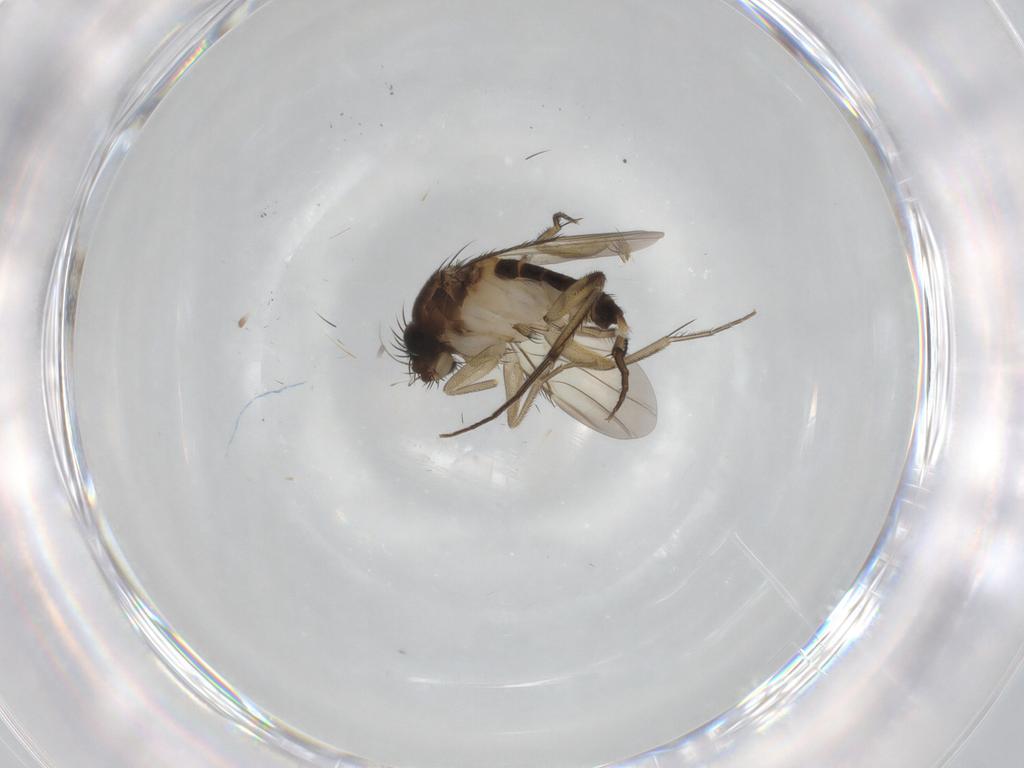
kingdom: Animalia
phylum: Arthropoda
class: Insecta
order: Diptera
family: Phoridae
